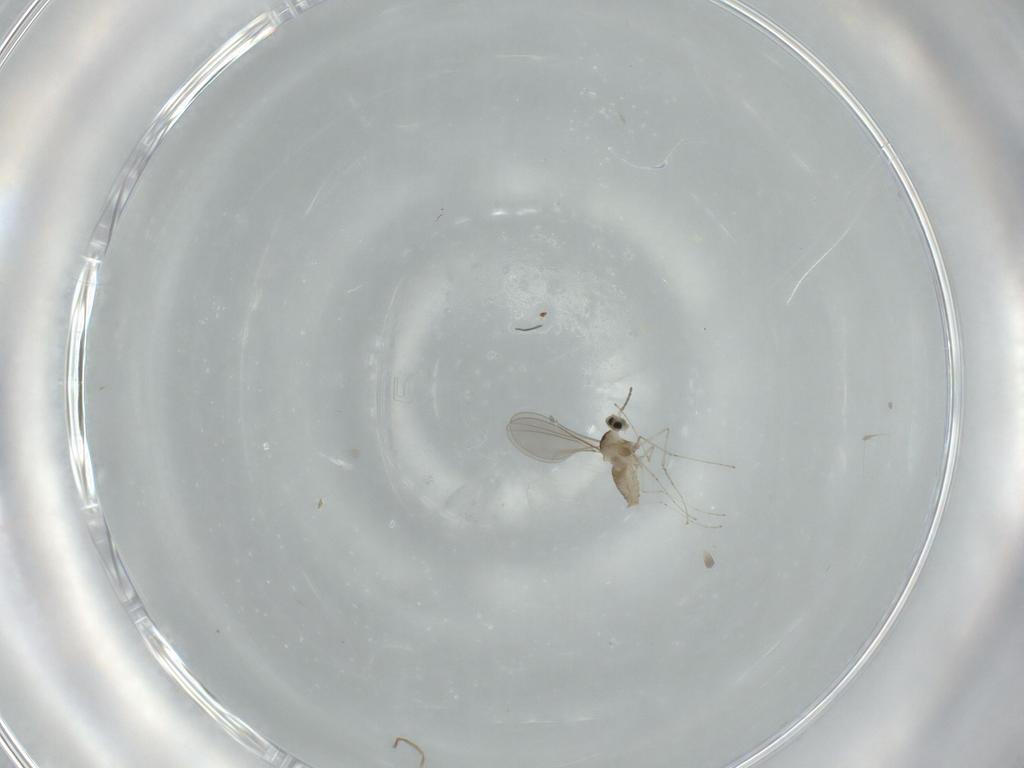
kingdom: Animalia
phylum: Arthropoda
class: Insecta
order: Diptera
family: Cecidomyiidae
